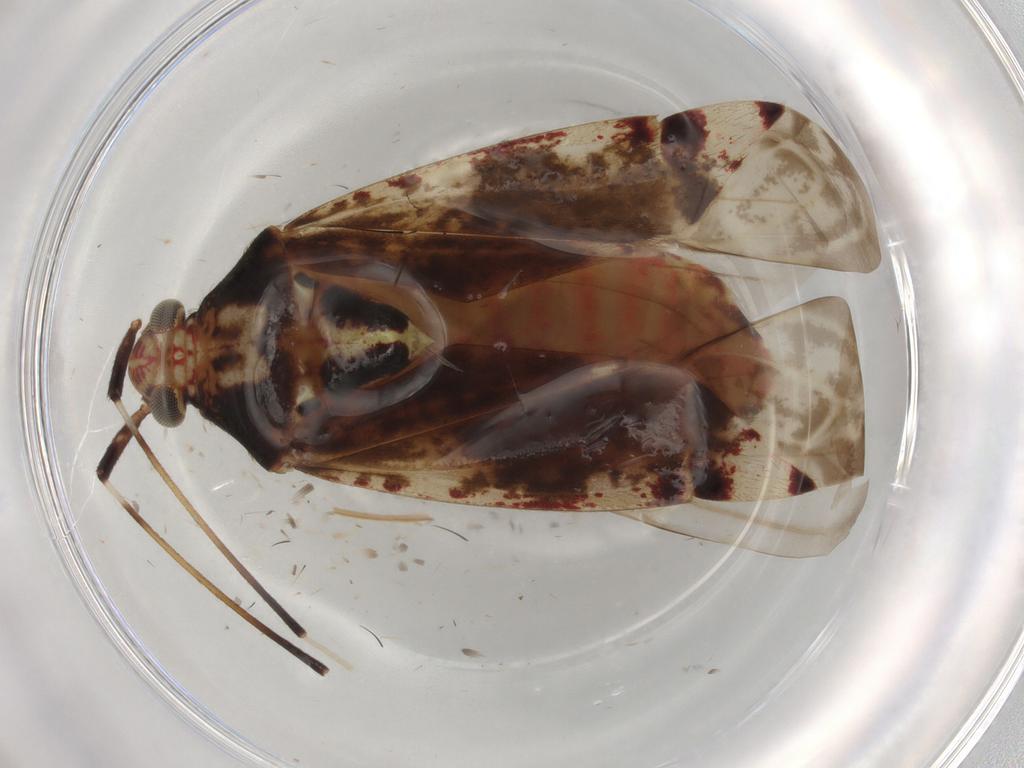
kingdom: Animalia
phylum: Arthropoda
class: Insecta
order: Hemiptera
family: Miridae
